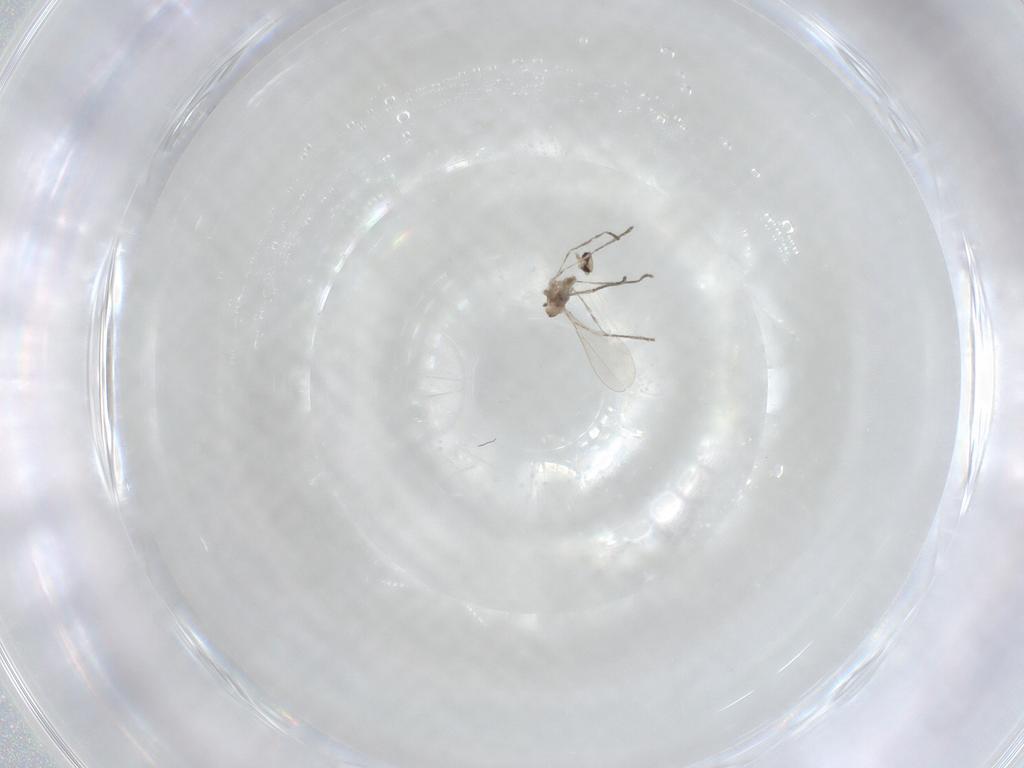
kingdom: Animalia
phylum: Arthropoda
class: Insecta
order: Diptera
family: Cecidomyiidae
